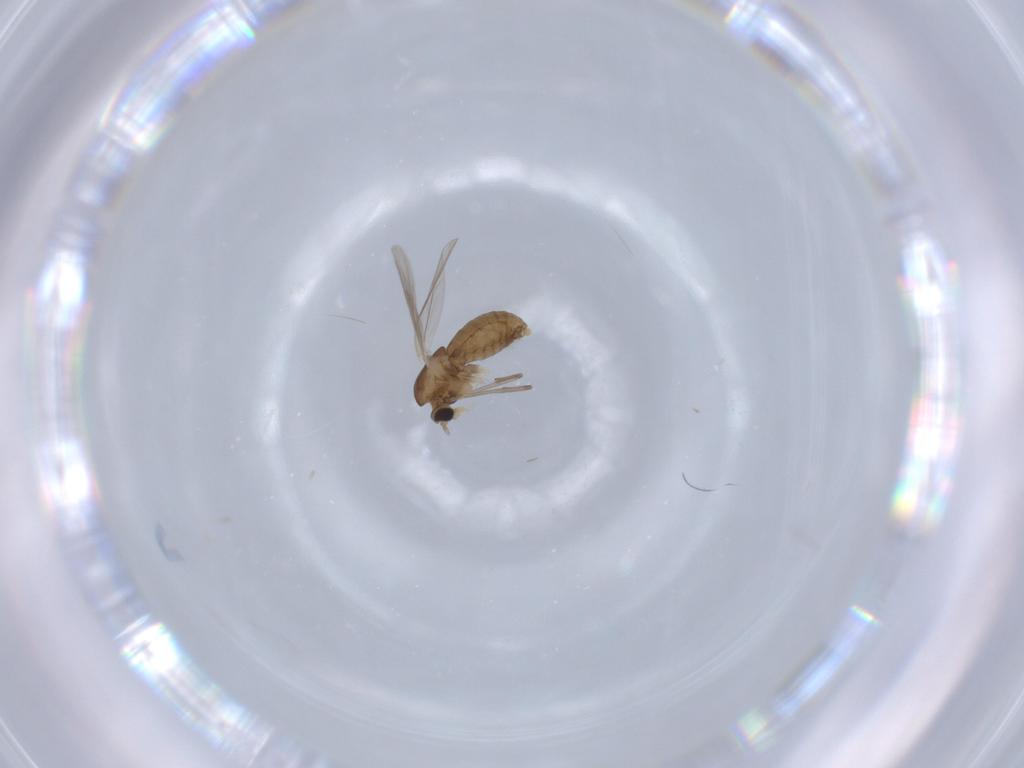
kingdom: Animalia
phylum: Arthropoda
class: Insecta
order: Diptera
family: Chironomidae
